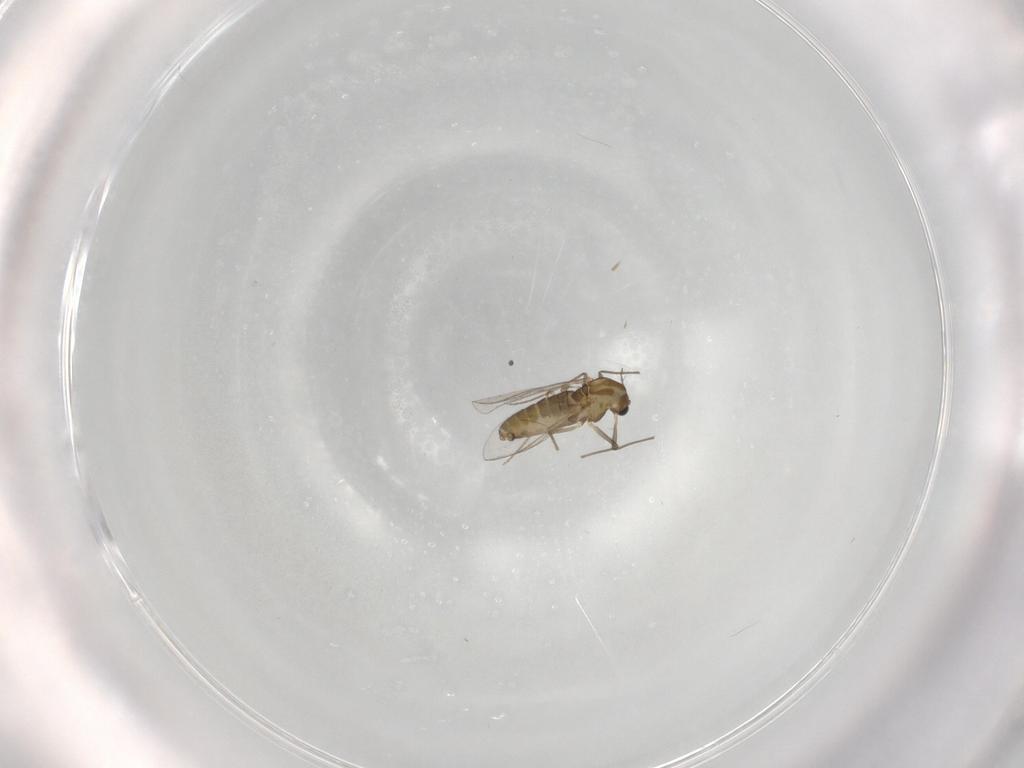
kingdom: Animalia
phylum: Arthropoda
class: Insecta
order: Diptera
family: Chironomidae
